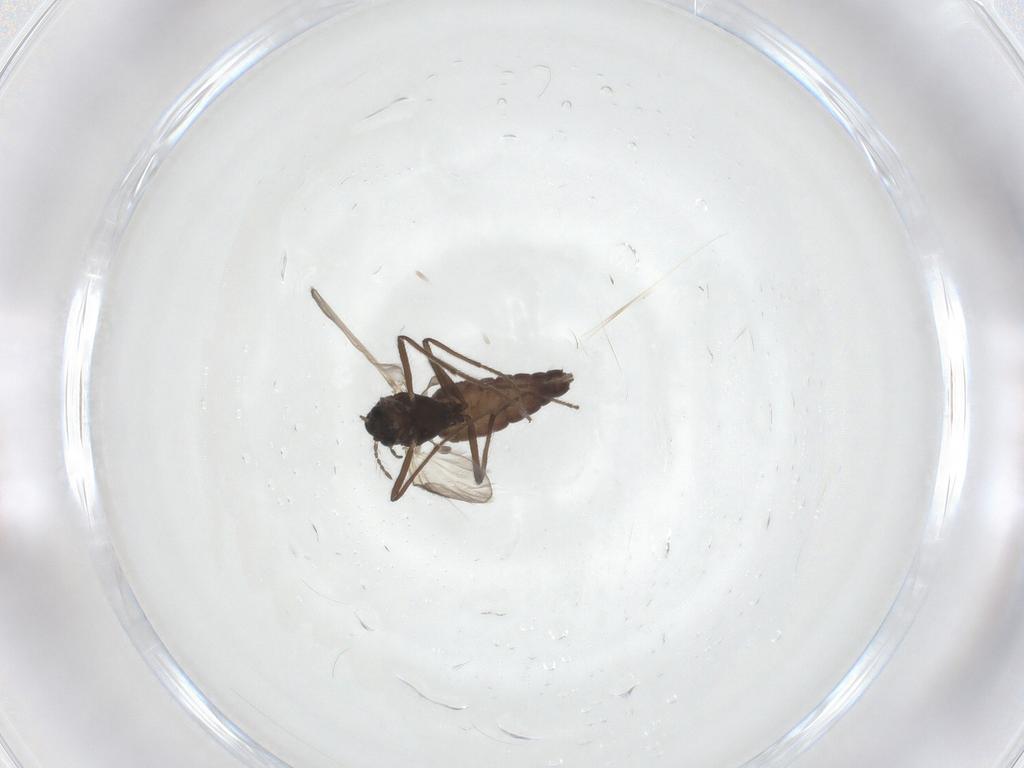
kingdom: Animalia
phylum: Arthropoda
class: Insecta
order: Diptera
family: Chironomidae
